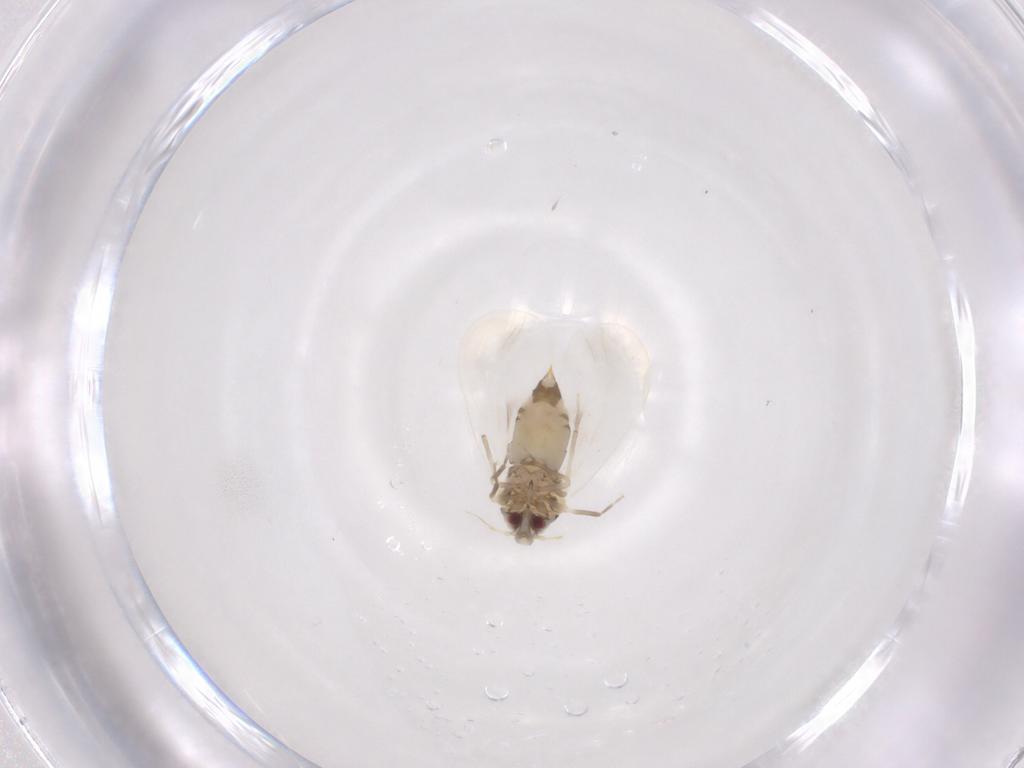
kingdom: Animalia
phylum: Arthropoda
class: Insecta
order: Hemiptera
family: Aleyrodidae
